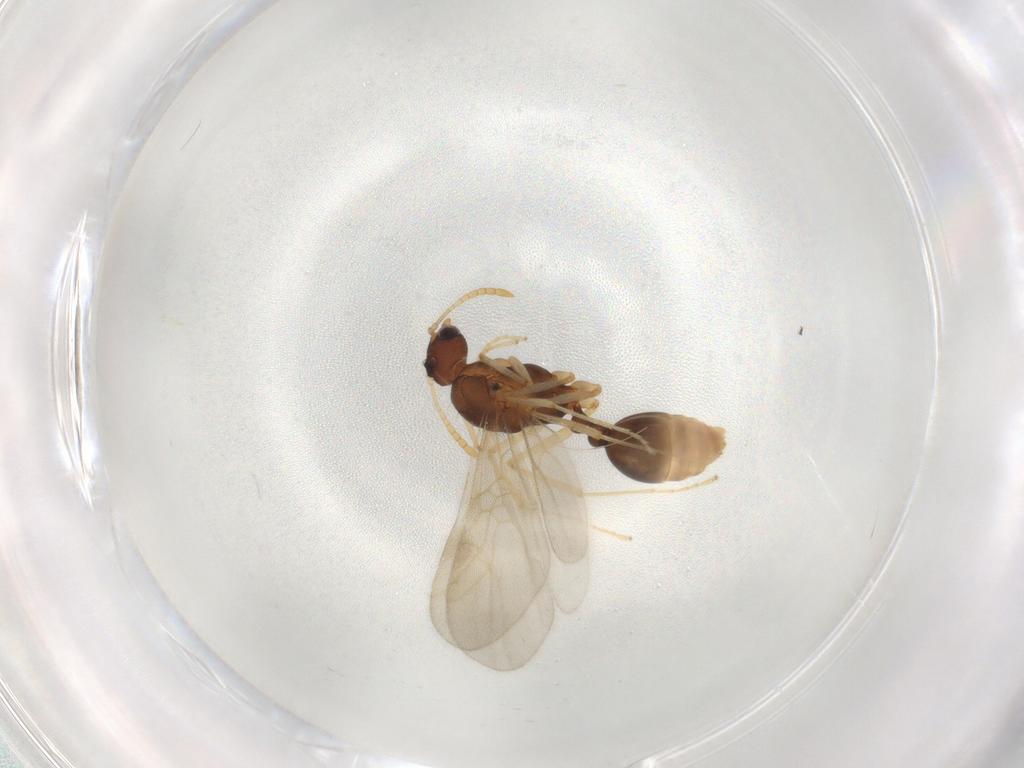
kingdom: Animalia
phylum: Arthropoda
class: Insecta
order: Hymenoptera
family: Formicidae
